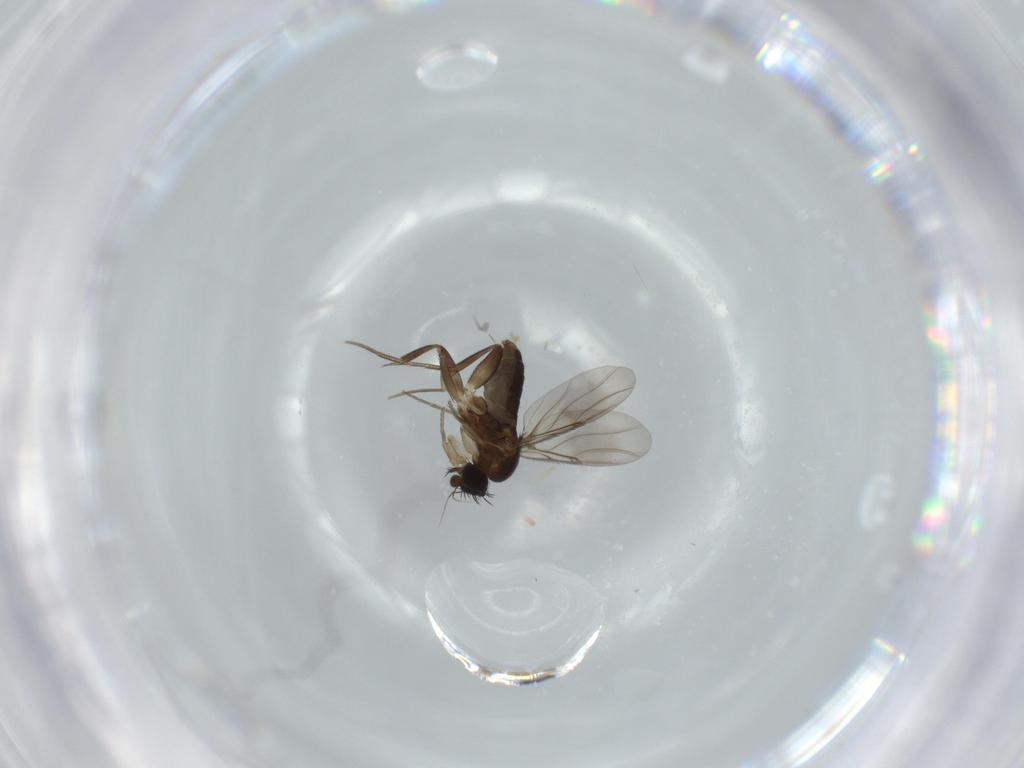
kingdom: Animalia
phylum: Arthropoda
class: Insecta
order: Diptera
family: Phoridae
